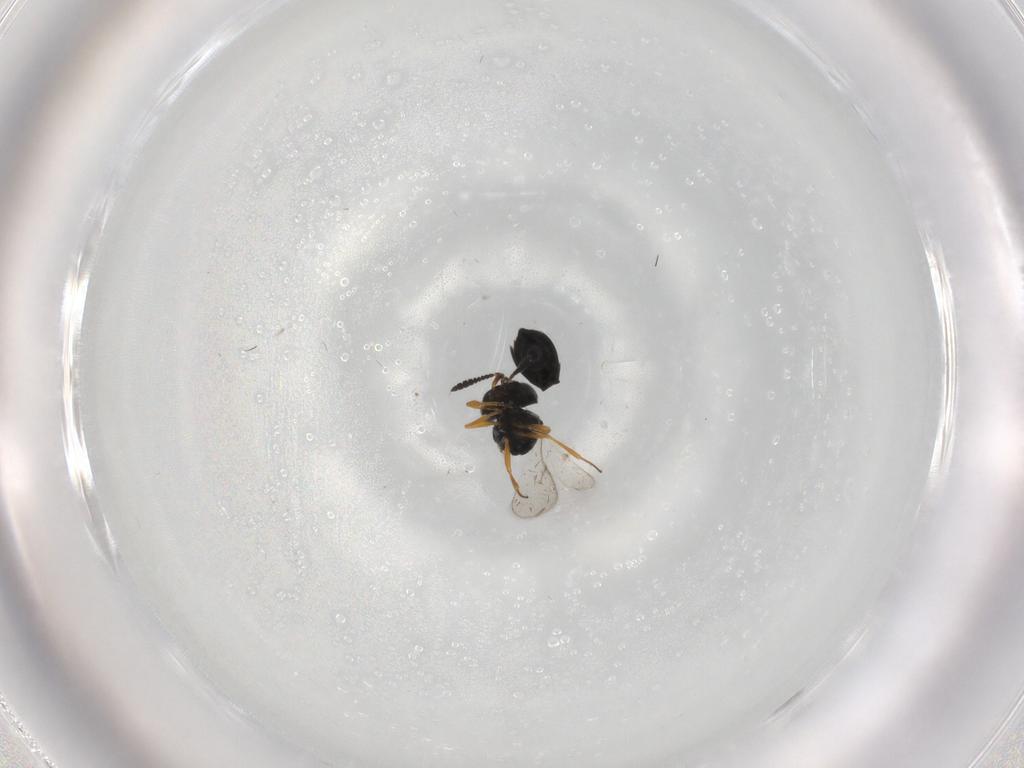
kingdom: Animalia
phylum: Arthropoda
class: Insecta
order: Hymenoptera
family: Scelionidae
